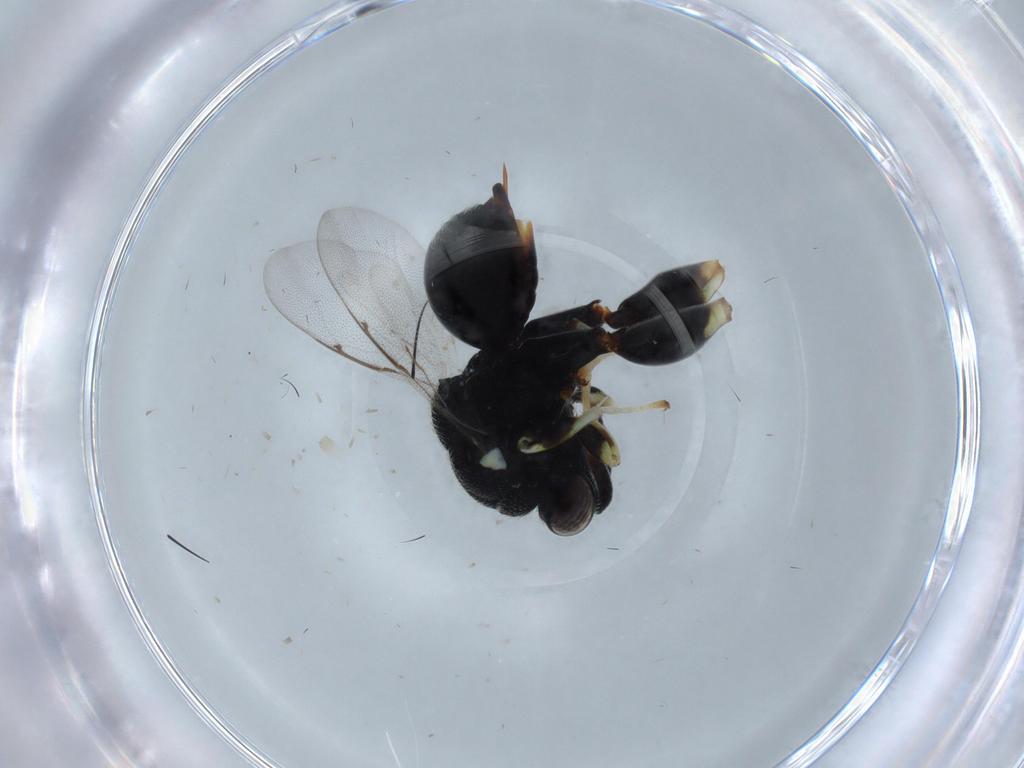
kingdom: Animalia
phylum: Arthropoda
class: Insecta
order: Hymenoptera
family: Chalcididae
